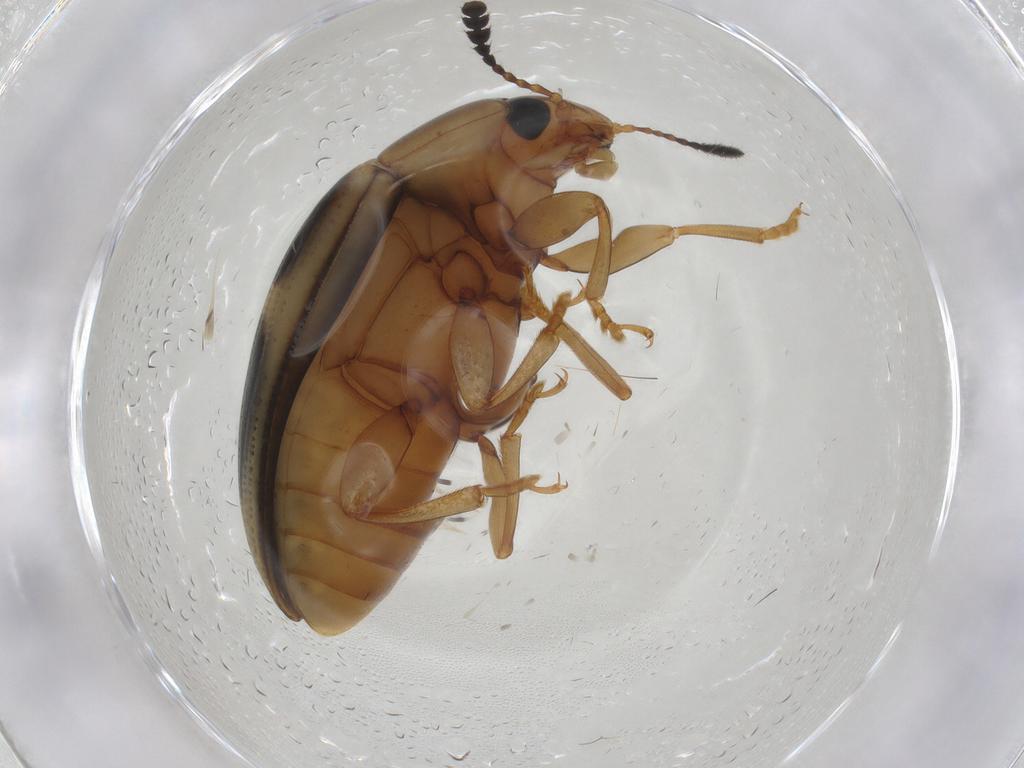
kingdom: Animalia
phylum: Arthropoda
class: Insecta
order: Coleoptera
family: Erotylidae
